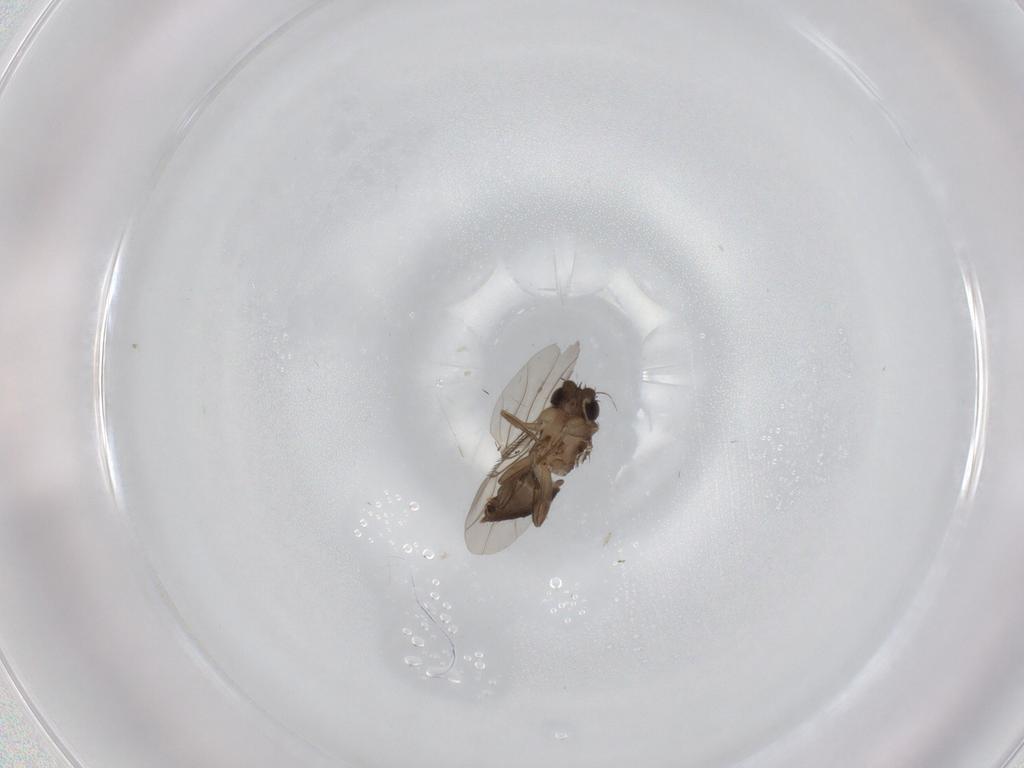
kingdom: Animalia
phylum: Arthropoda
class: Insecta
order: Diptera
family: Phoridae
